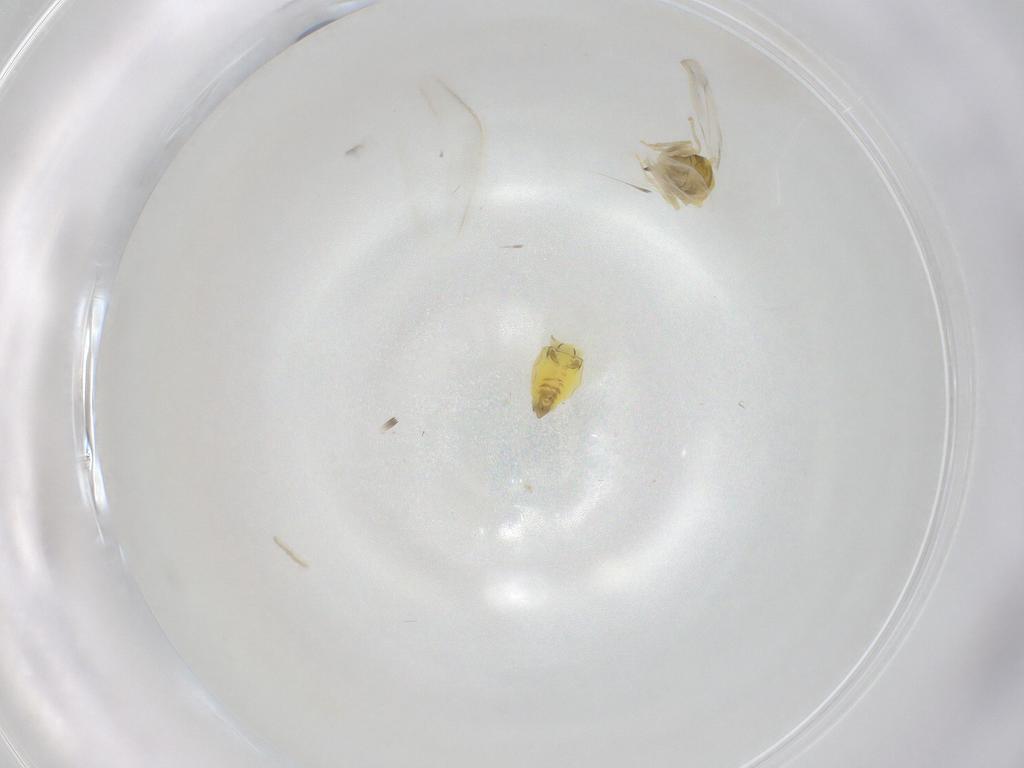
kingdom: Animalia
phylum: Arthropoda
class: Insecta
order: Hemiptera
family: Aleyrodidae
